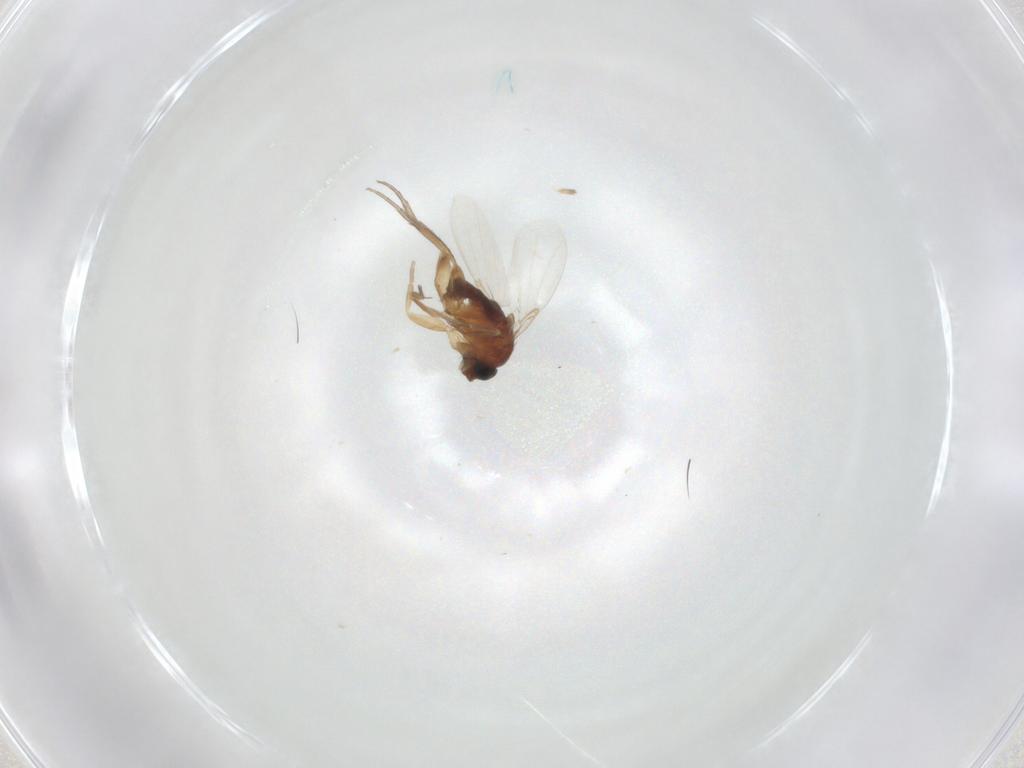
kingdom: Animalia
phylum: Arthropoda
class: Insecta
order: Diptera
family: Phoridae
